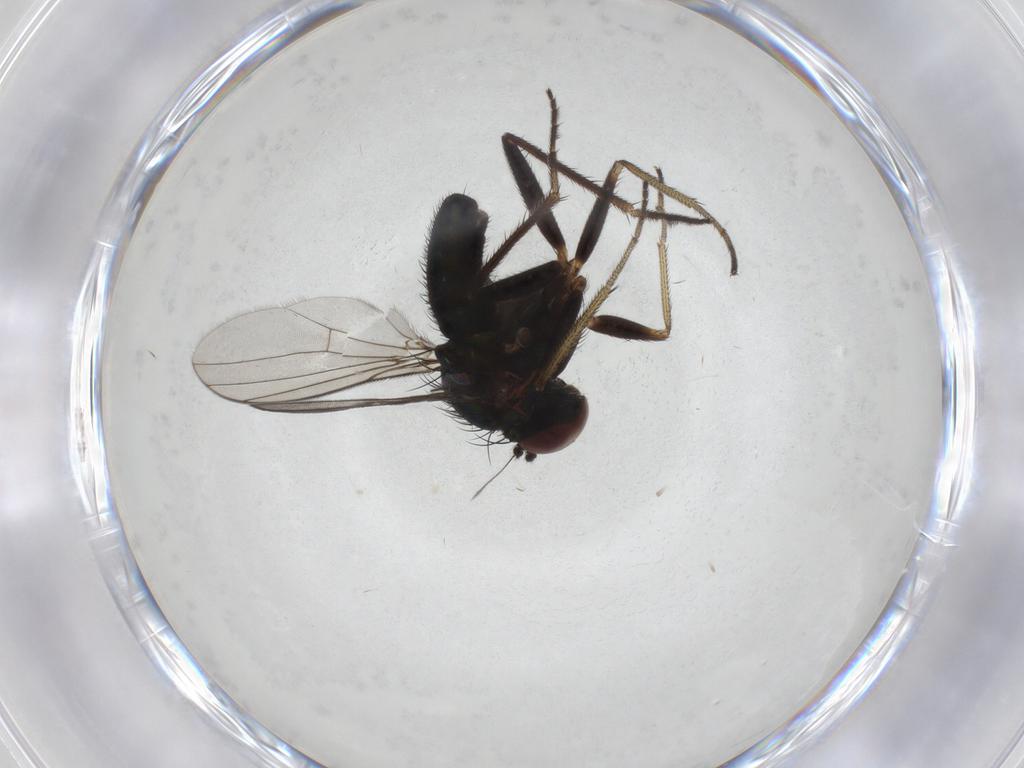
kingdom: Animalia
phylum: Arthropoda
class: Insecta
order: Diptera
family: Dolichopodidae
